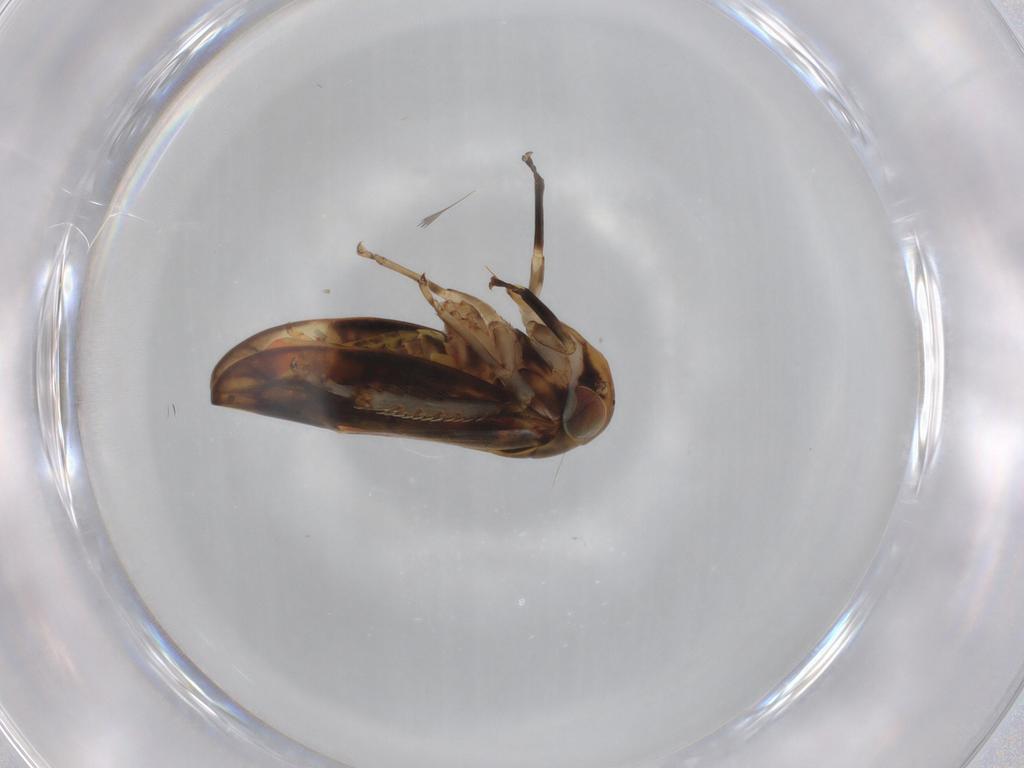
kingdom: Animalia
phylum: Arthropoda
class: Insecta
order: Hemiptera
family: Cicadellidae
